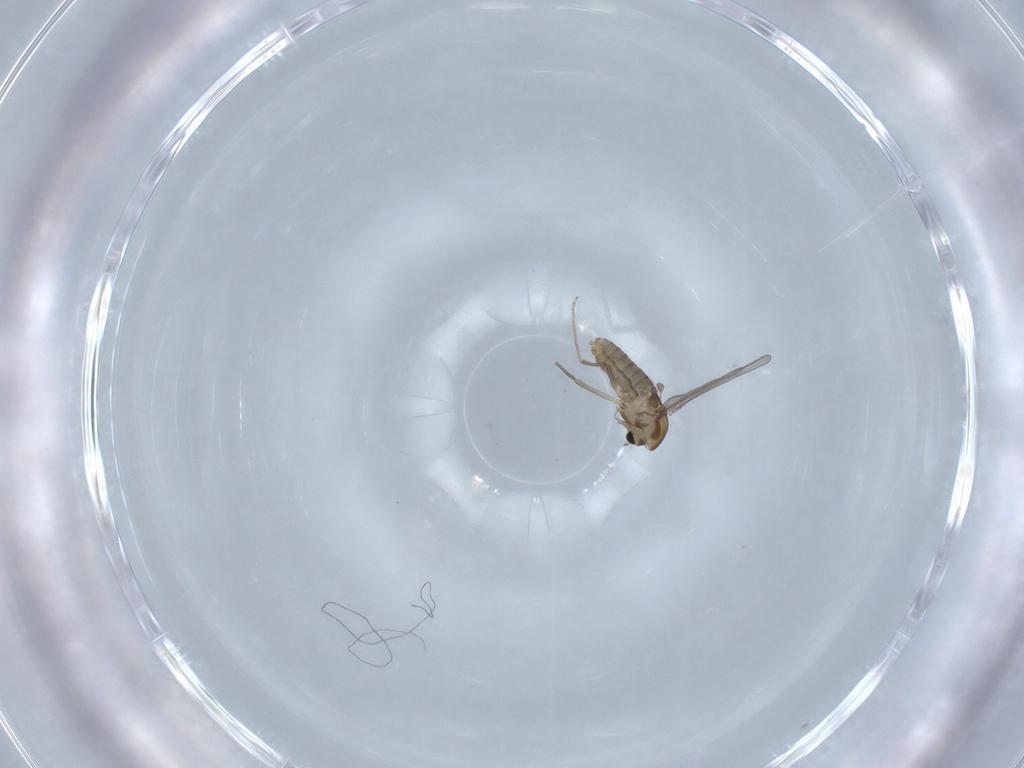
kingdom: Animalia
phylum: Arthropoda
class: Insecta
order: Diptera
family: Chironomidae
